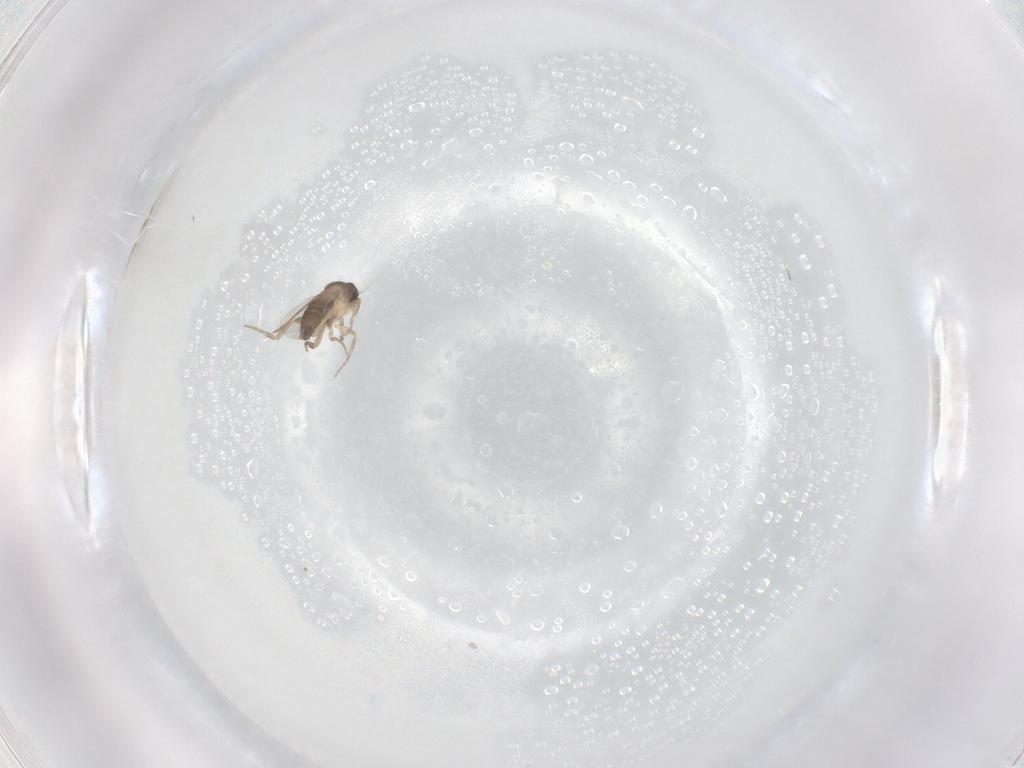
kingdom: Animalia
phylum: Arthropoda
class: Insecta
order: Diptera
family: Phoridae
